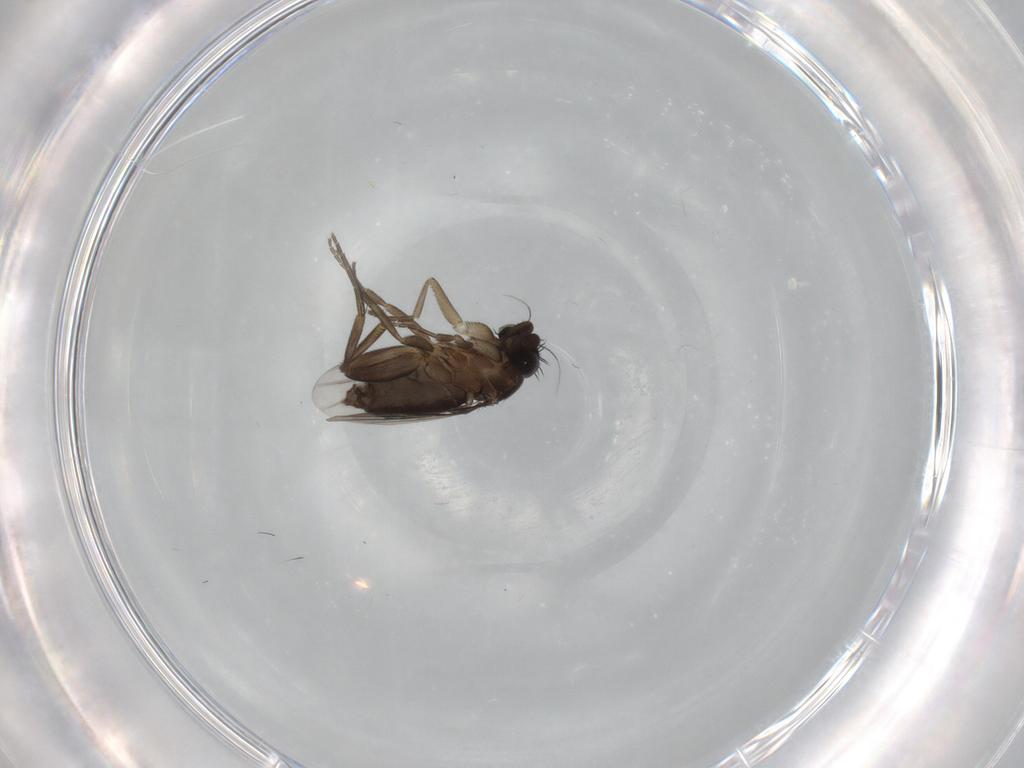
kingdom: Animalia
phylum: Arthropoda
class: Insecta
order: Diptera
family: Phoridae
